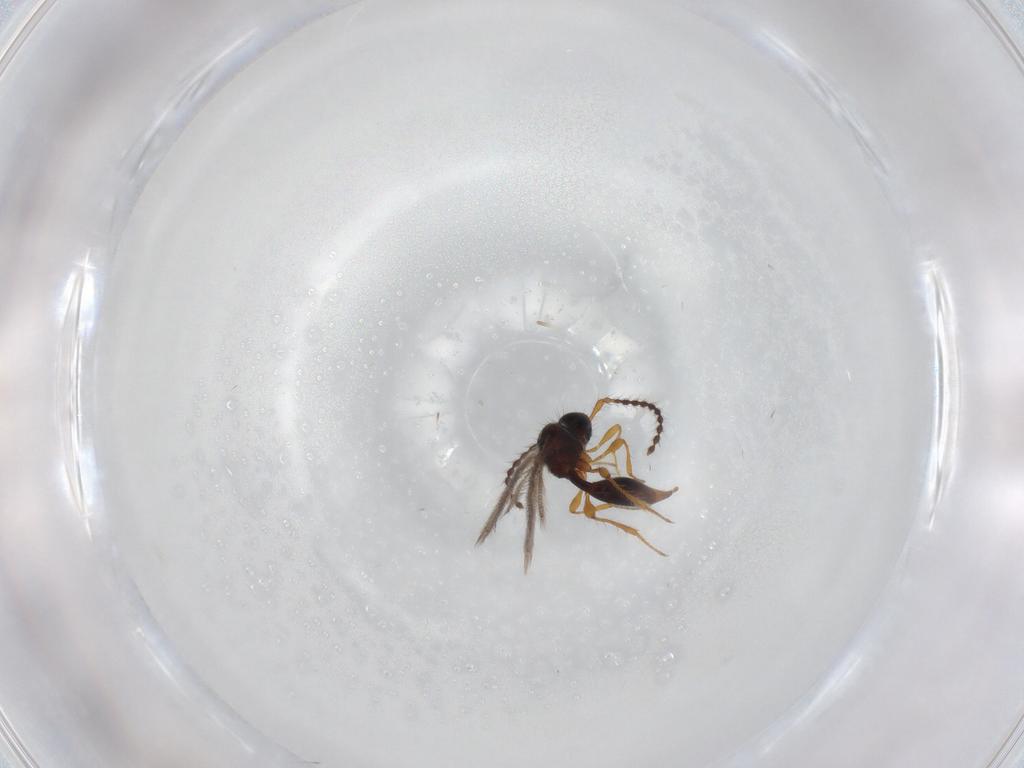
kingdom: Animalia
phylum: Arthropoda
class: Insecta
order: Hymenoptera
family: Diapriidae
